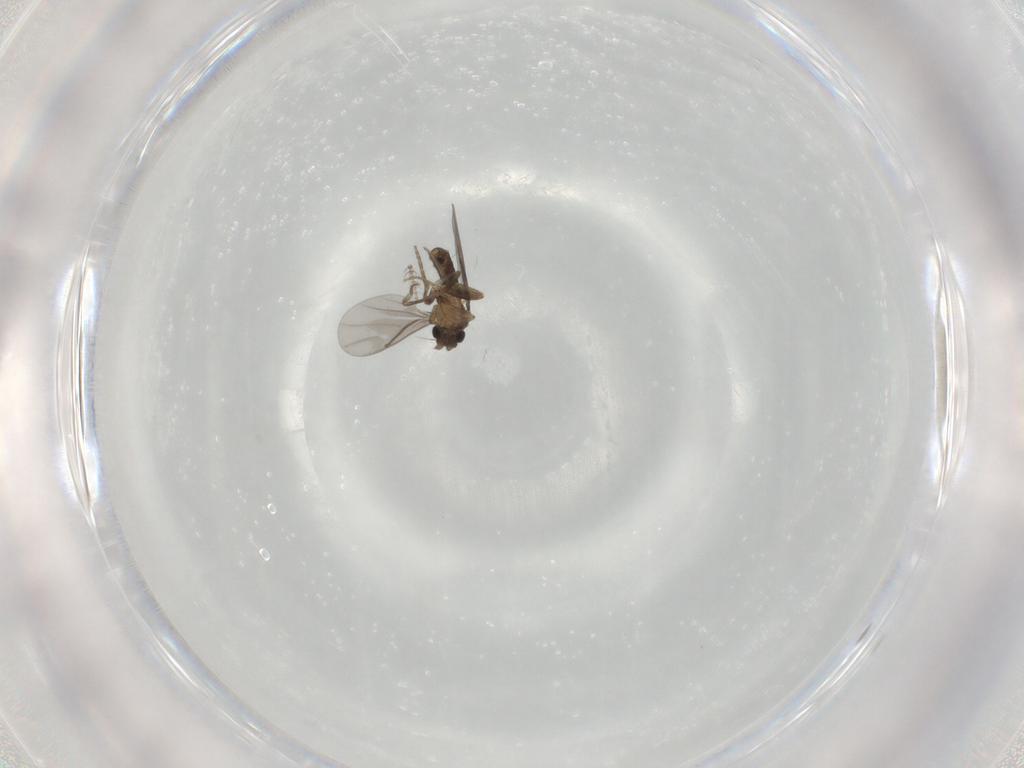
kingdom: Animalia
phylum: Arthropoda
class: Insecta
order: Diptera
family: Ceratopogonidae
